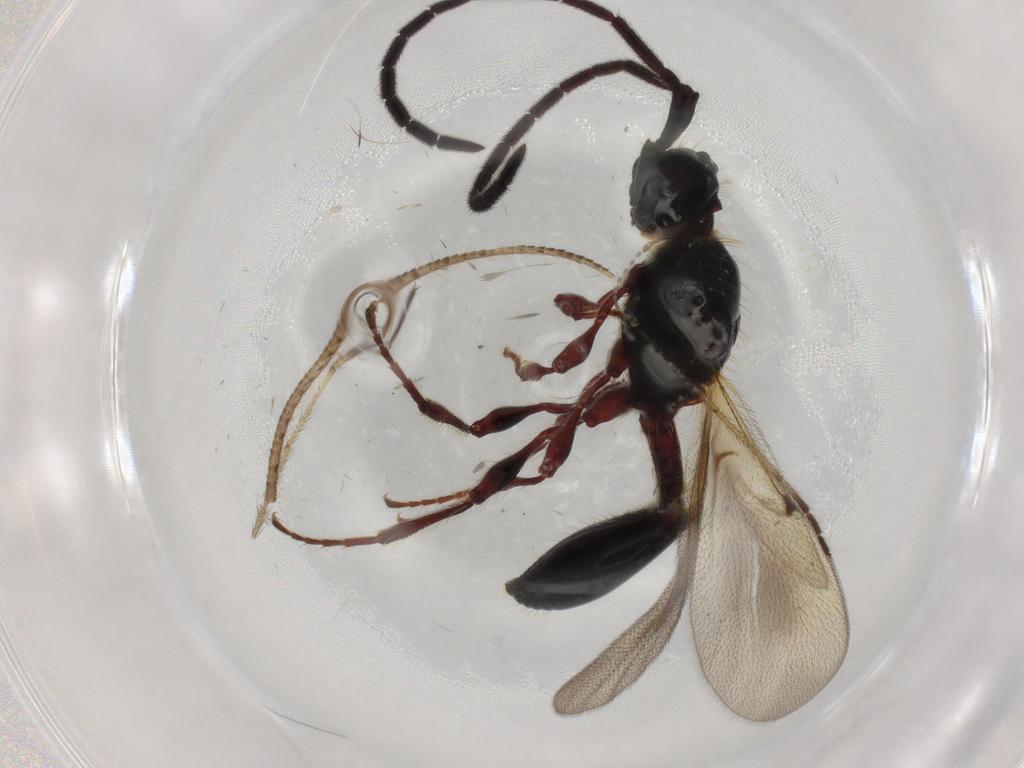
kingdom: Animalia
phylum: Arthropoda
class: Insecta
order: Hymenoptera
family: Diapriidae
